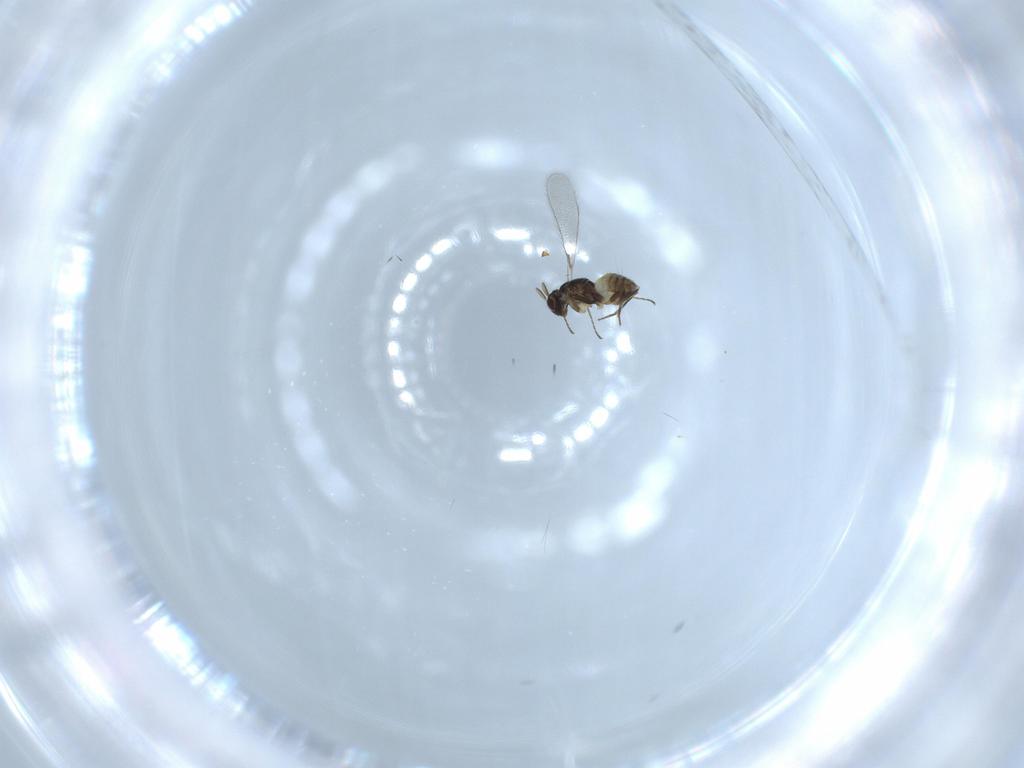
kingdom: Animalia
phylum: Arthropoda
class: Insecta
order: Hymenoptera
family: Mymaridae
